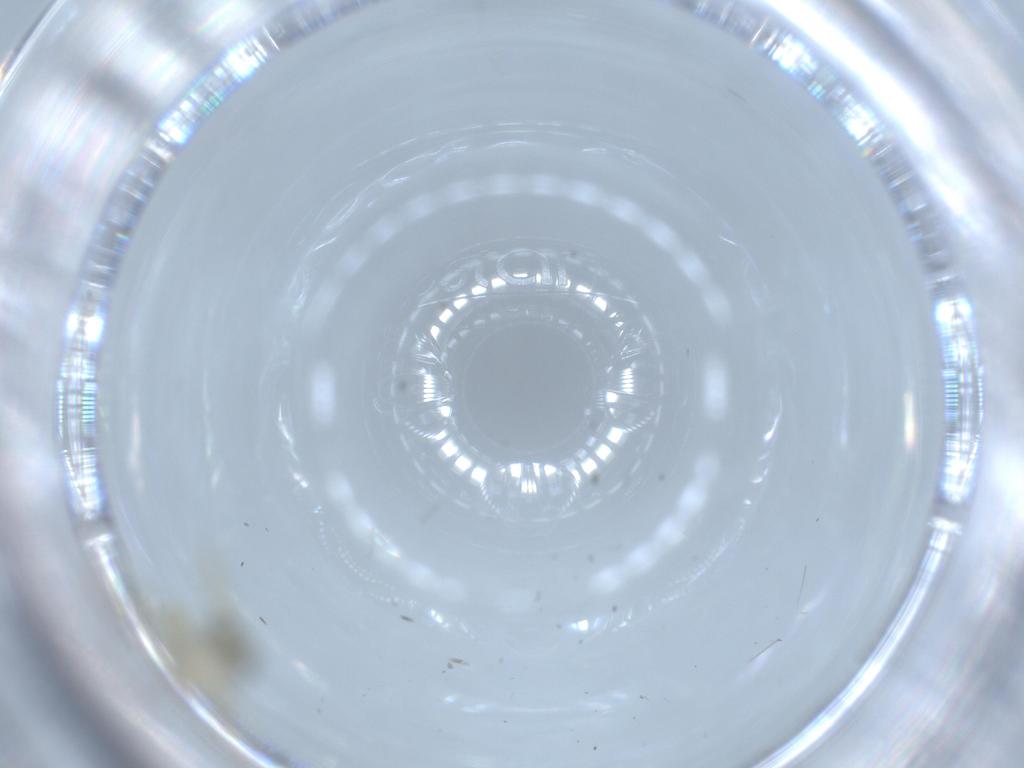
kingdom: Animalia
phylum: Arthropoda
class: Insecta
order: Diptera
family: Chironomidae
